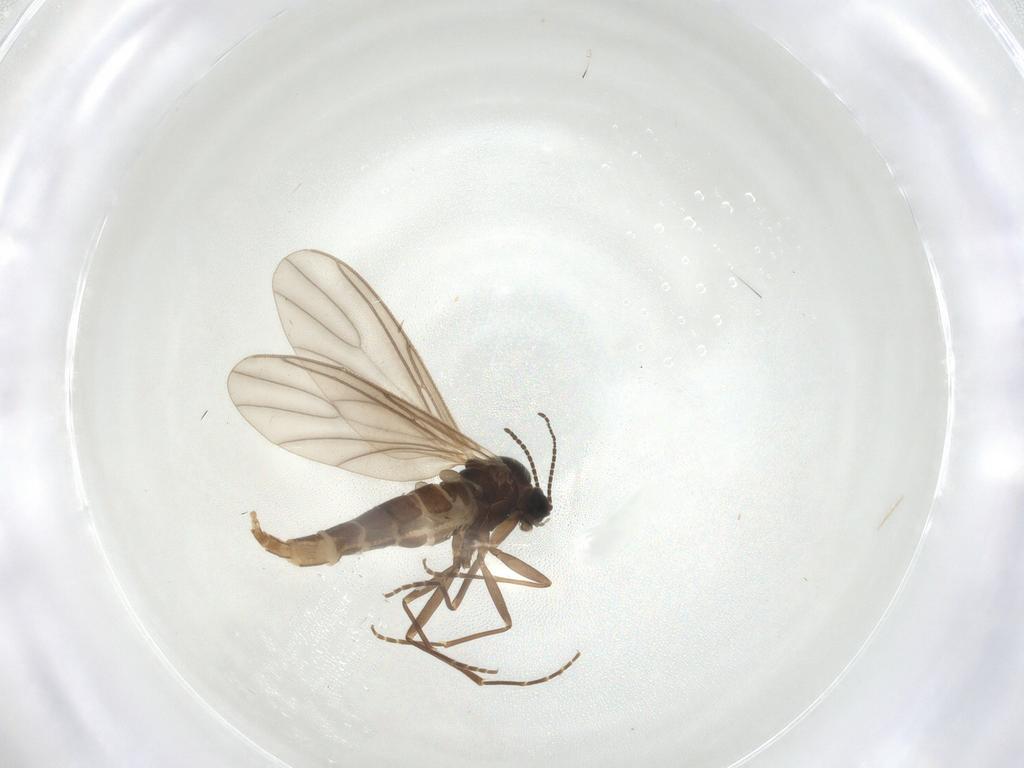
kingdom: Animalia
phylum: Arthropoda
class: Insecta
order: Diptera
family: Sciaridae
